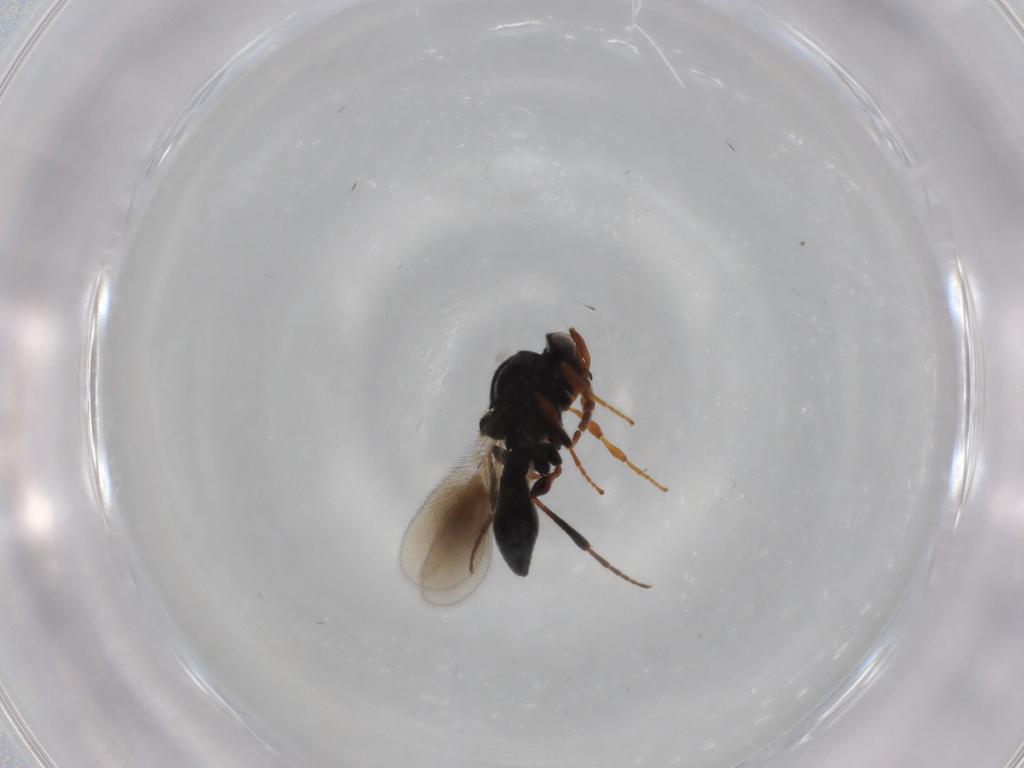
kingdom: Animalia
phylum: Arthropoda
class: Insecta
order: Hymenoptera
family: Platygastridae
